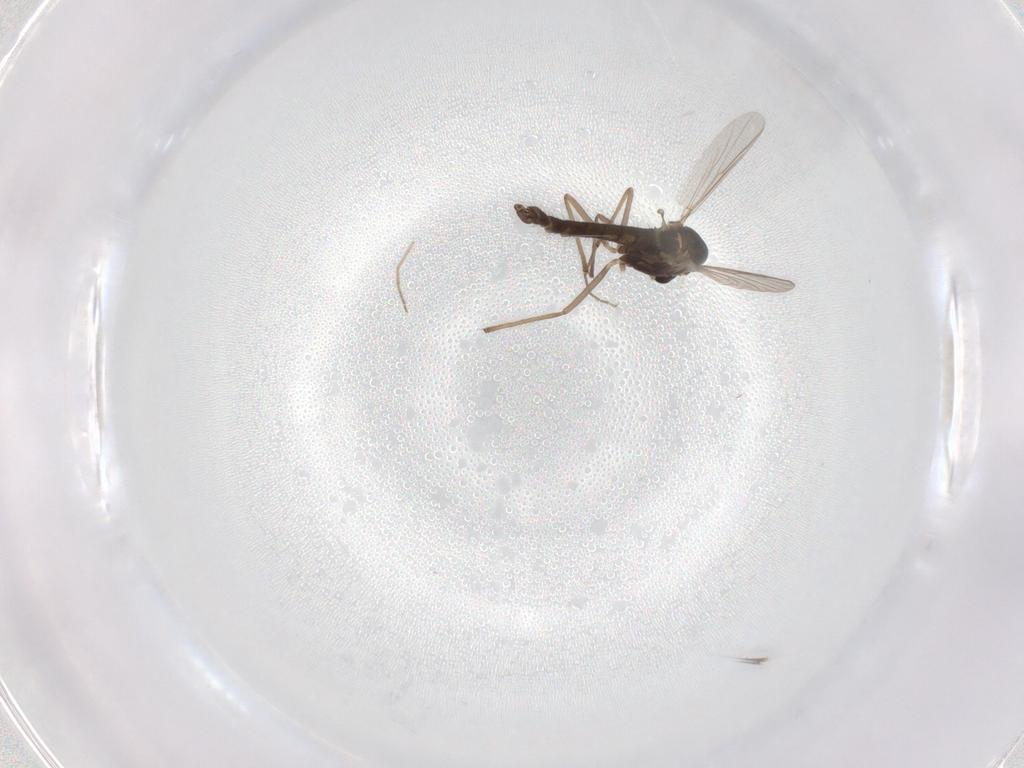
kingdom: Animalia
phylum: Arthropoda
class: Insecta
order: Diptera
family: Chironomidae
